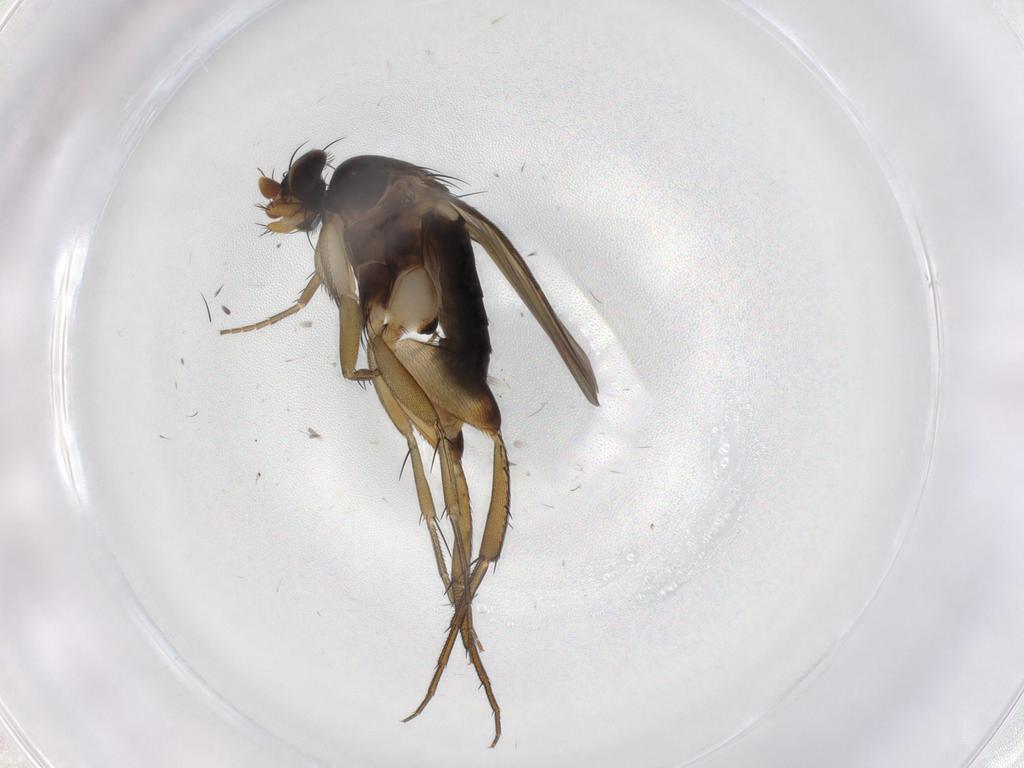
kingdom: Animalia
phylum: Arthropoda
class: Insecta
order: Diptera
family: Phoridae
